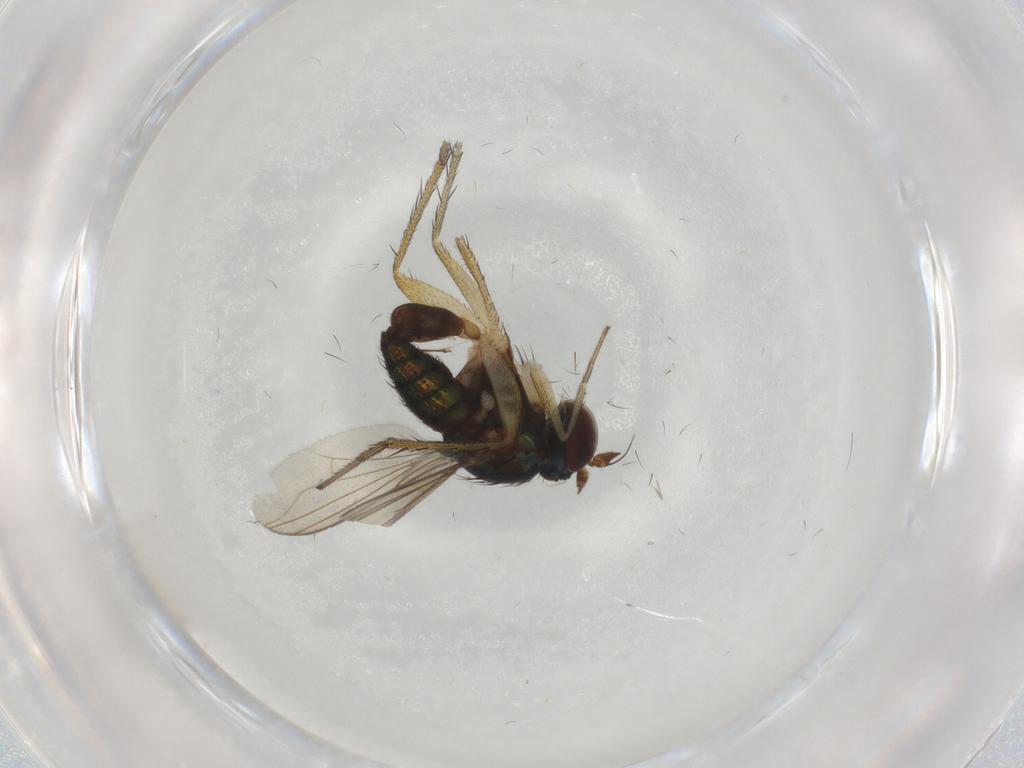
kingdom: Animalia
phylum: Arthropoda
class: Insecta
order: Diptera
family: Dolichopodidae
